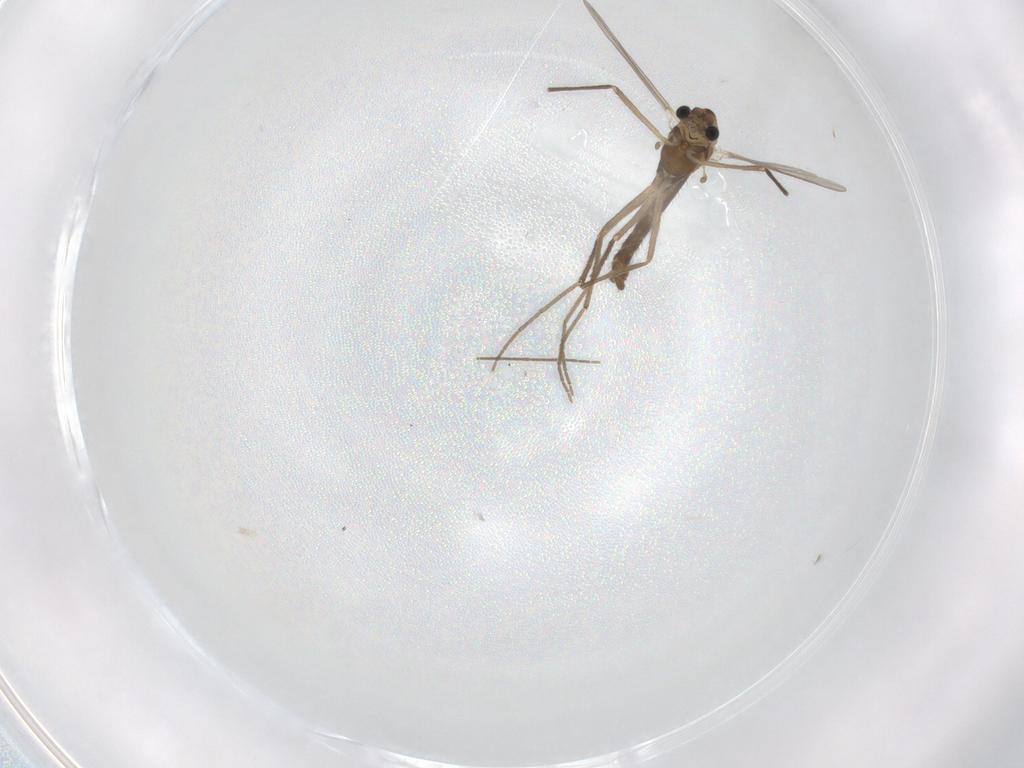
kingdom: Animalia
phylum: Arthropoda
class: Insecta
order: Diptera
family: Chironomidae
